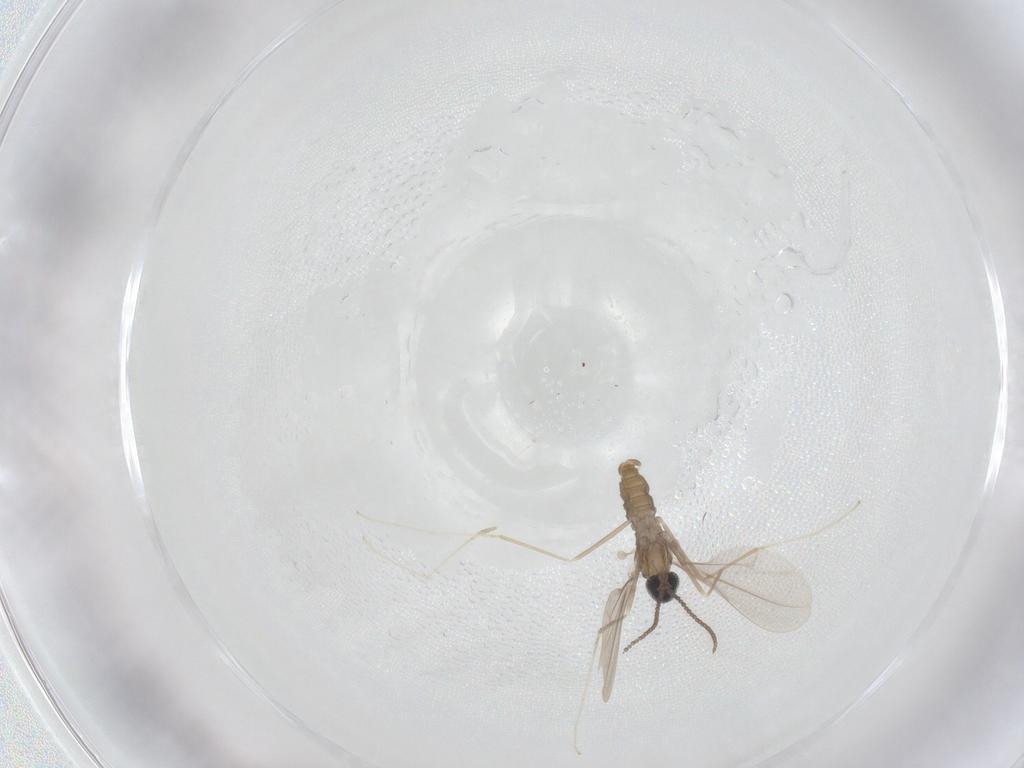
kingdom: Animalia
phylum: Arthropoda
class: Insecta
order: Diptera
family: Cecidomyiidae
